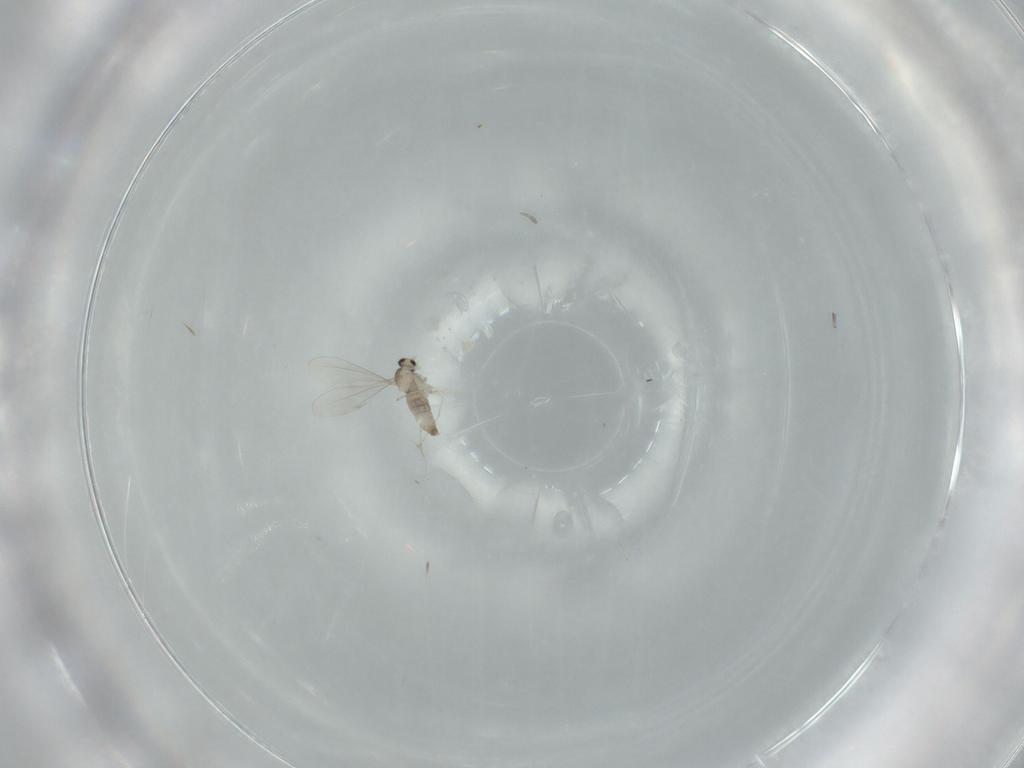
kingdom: Animalia
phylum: Arthropoda
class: Insecta
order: Diptera
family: Cecidomyiidae
